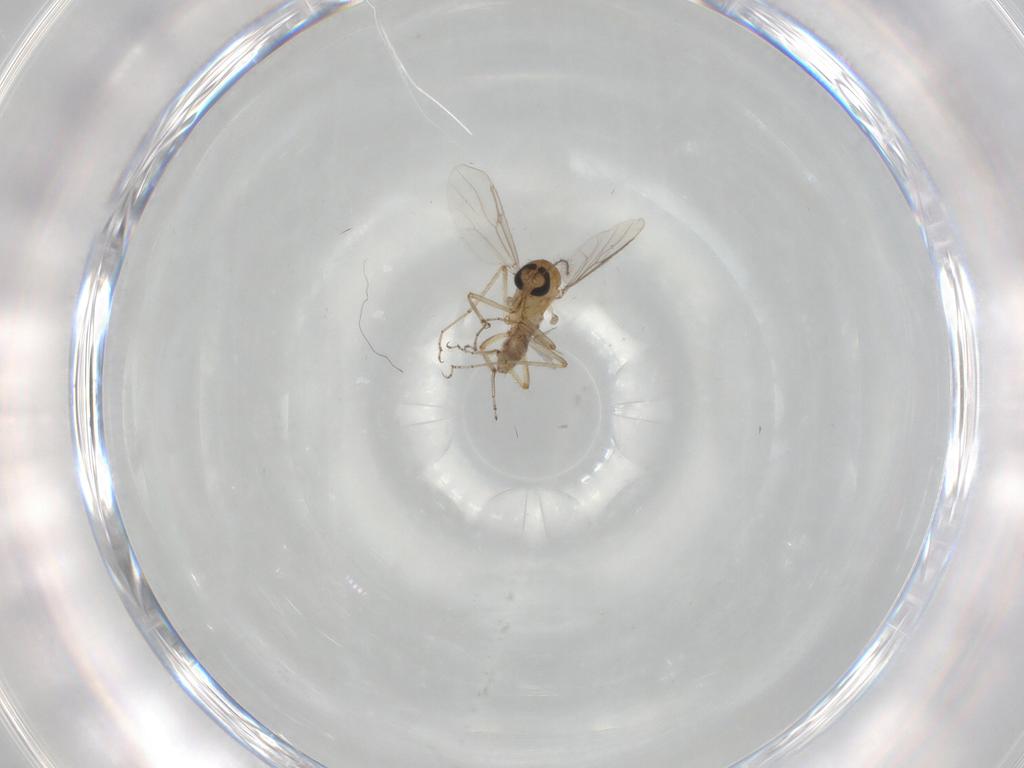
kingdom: Animalia
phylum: Arthropoda
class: Insecta
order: Diptera
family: Ceratopogonidae
